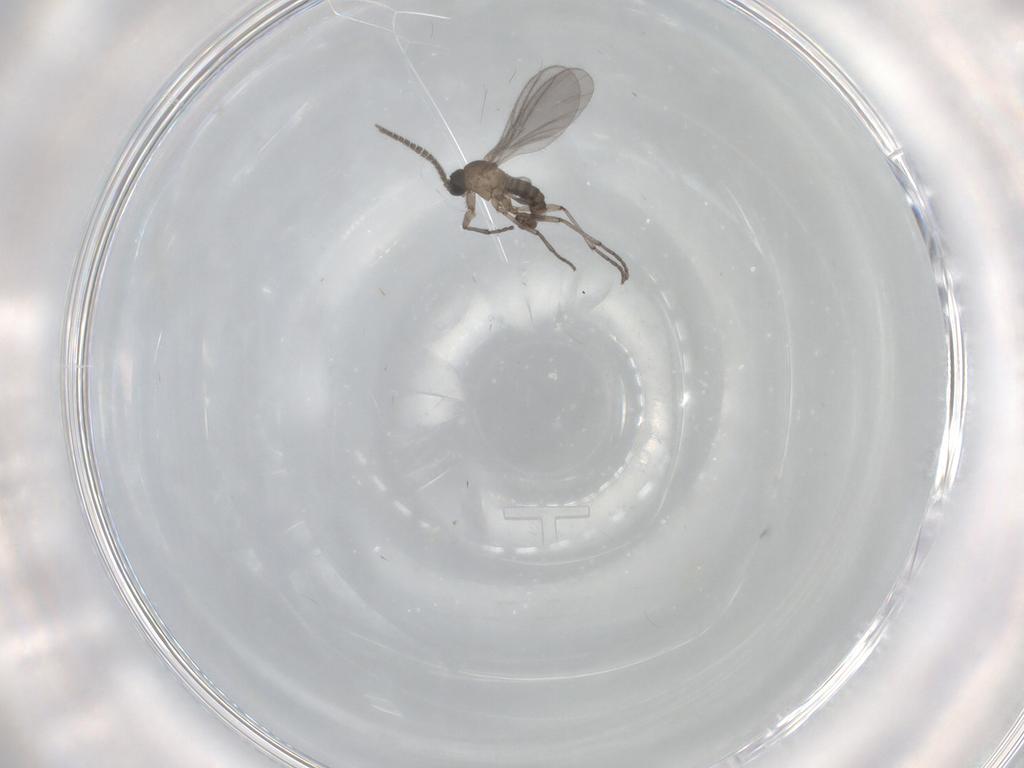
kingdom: Animalia
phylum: Arthropoda
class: Insecta
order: Diptera
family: Sciaridae
